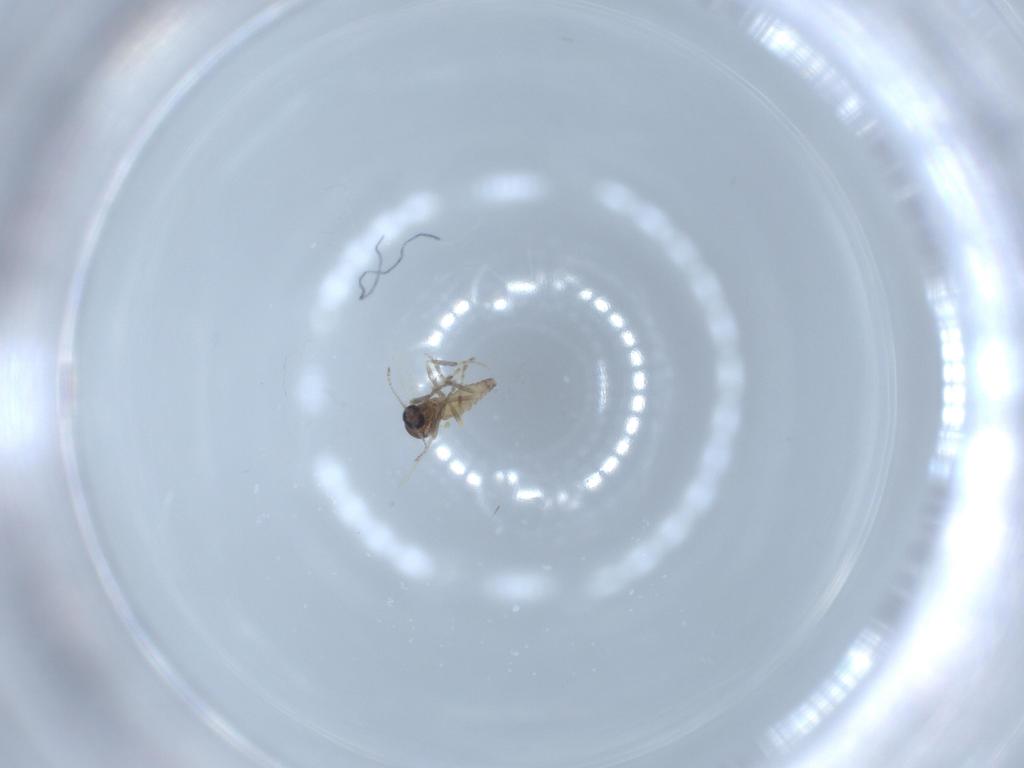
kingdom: Animalia
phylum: Arthropoda
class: Insecta
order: Diptera
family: Ceratopogonidae
